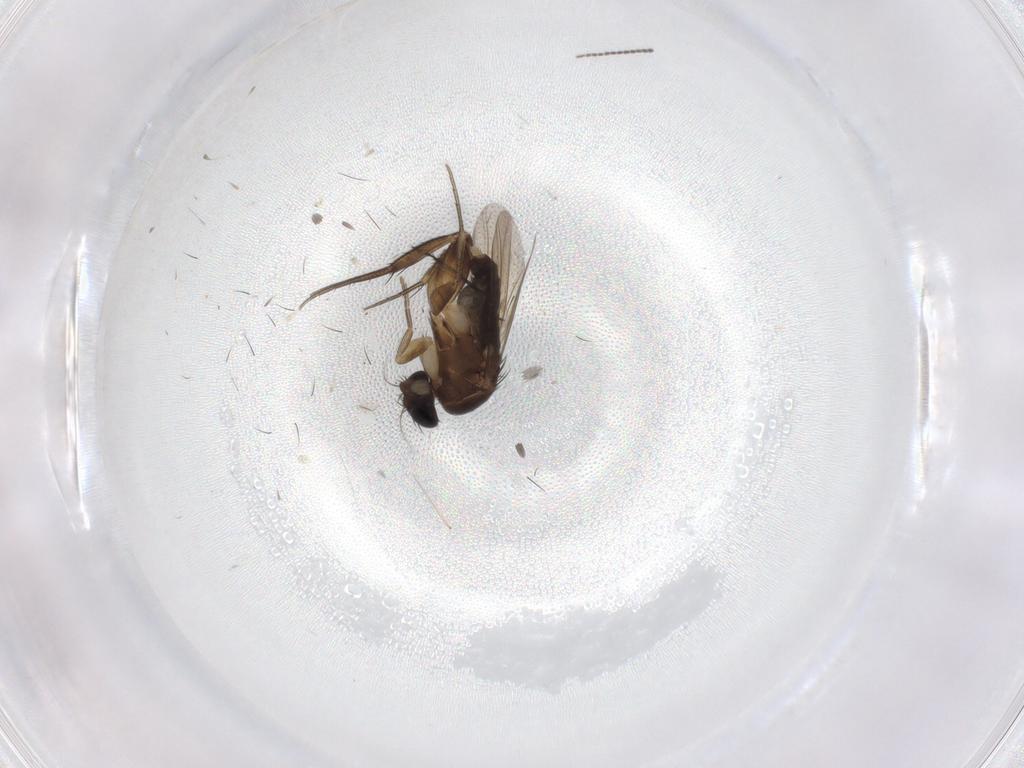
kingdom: Animalia
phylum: Arthropoda
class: Insecta
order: Diptera
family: Phoridae
